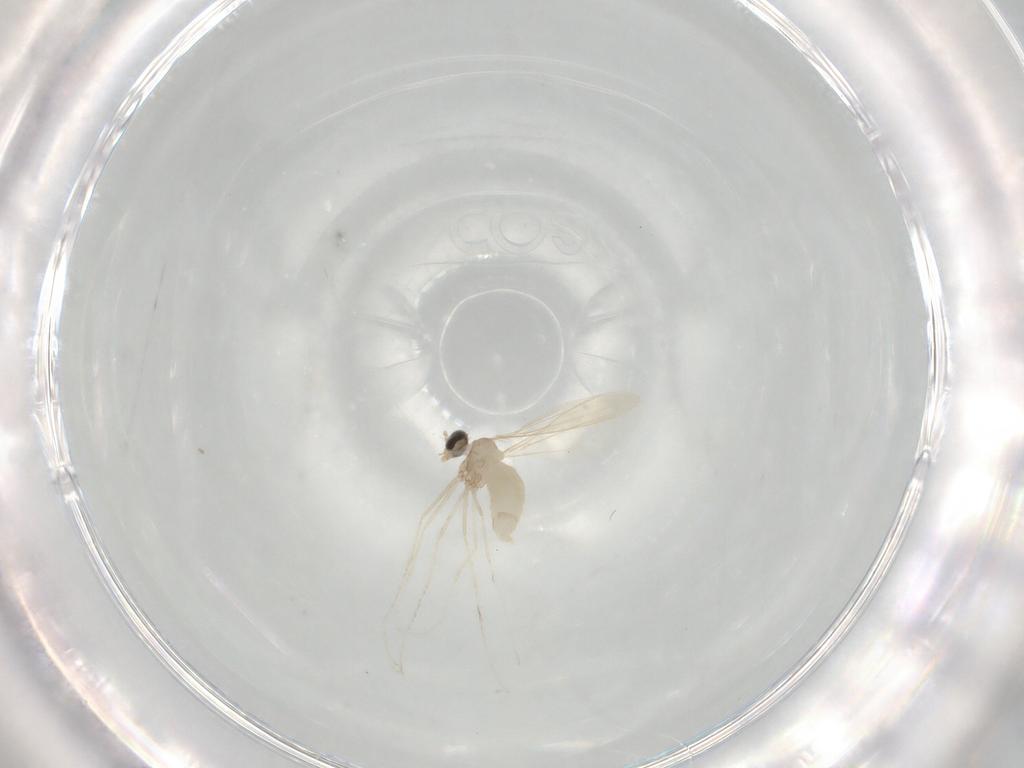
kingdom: Animalia
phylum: Arthropoda
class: Insecta
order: Diptera
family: Cecidomyiidae
